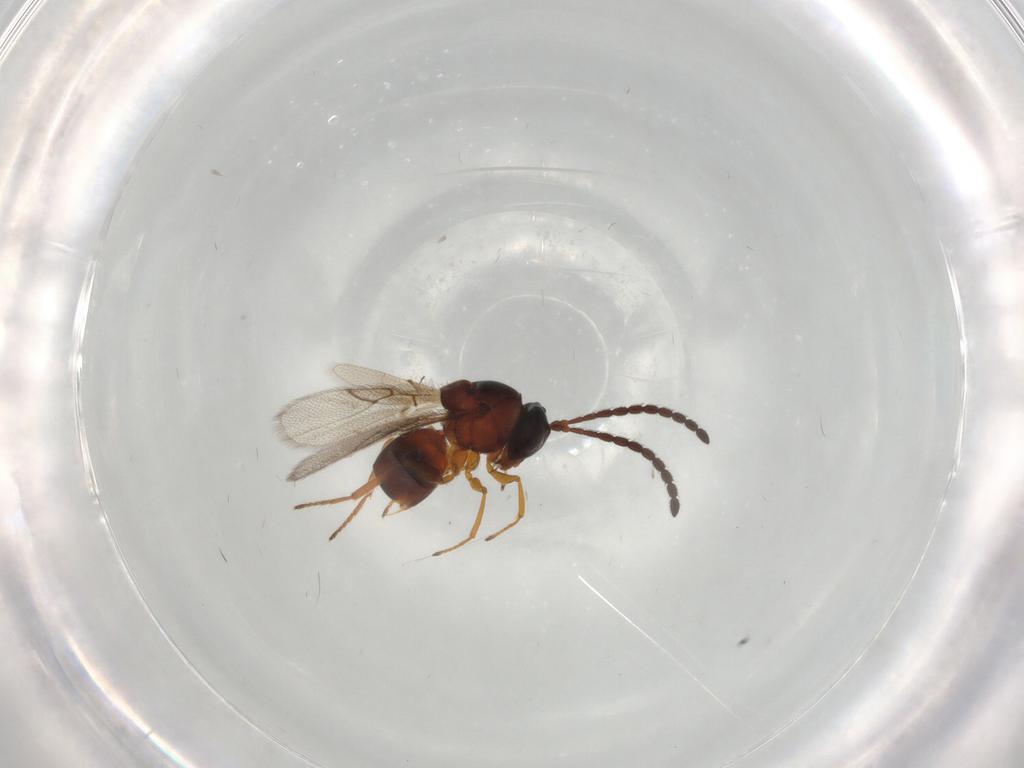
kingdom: Animalia
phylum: Arthropoda
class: Insecta
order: Hymenoptera
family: Figitidae
